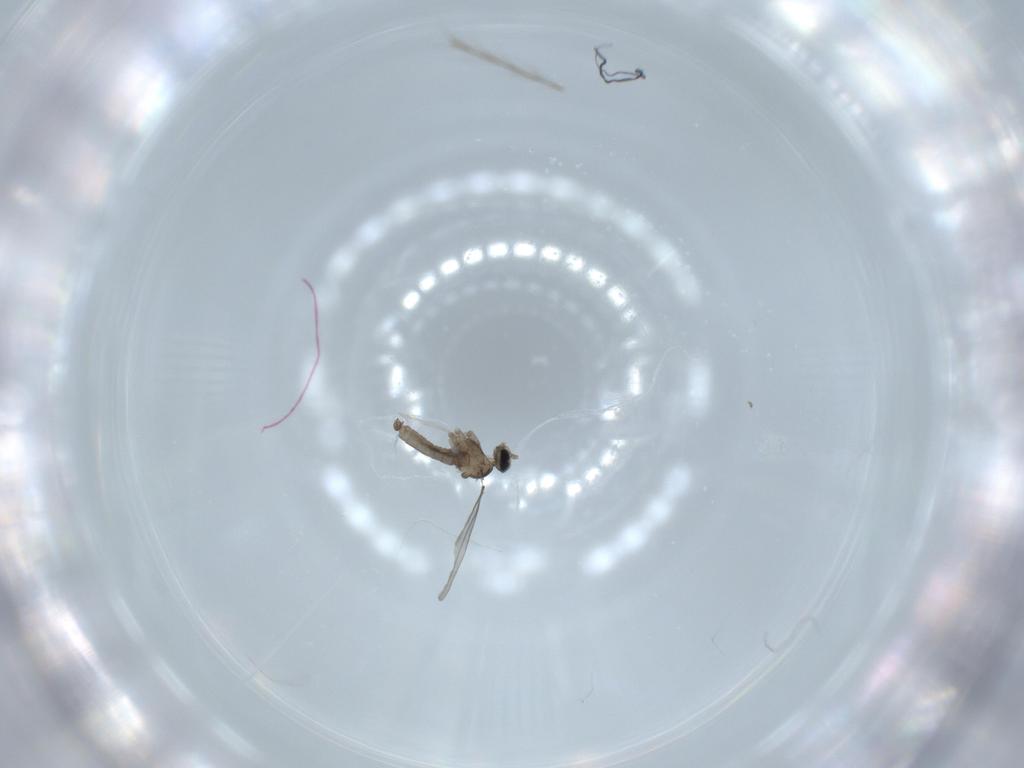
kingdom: Animalia
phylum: Arthropoda
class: Insecta
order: Diptera
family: Cecidomyiidae
